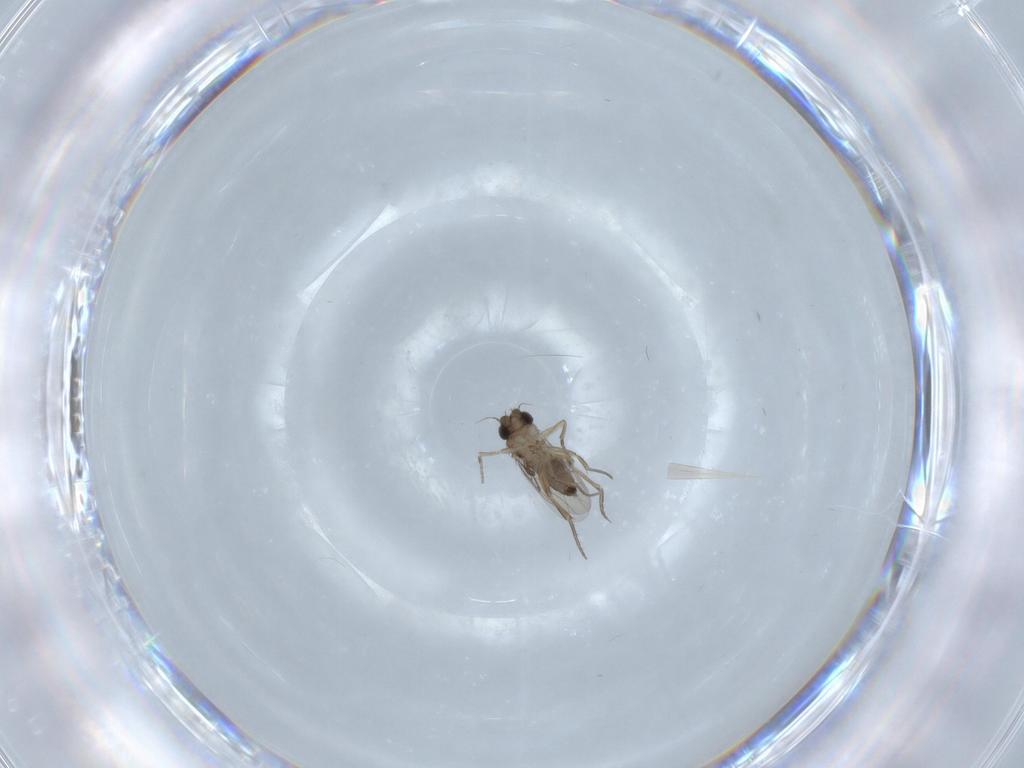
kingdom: Animalia
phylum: Arthropoda
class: Insecta
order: Diptera
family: Phoridae
